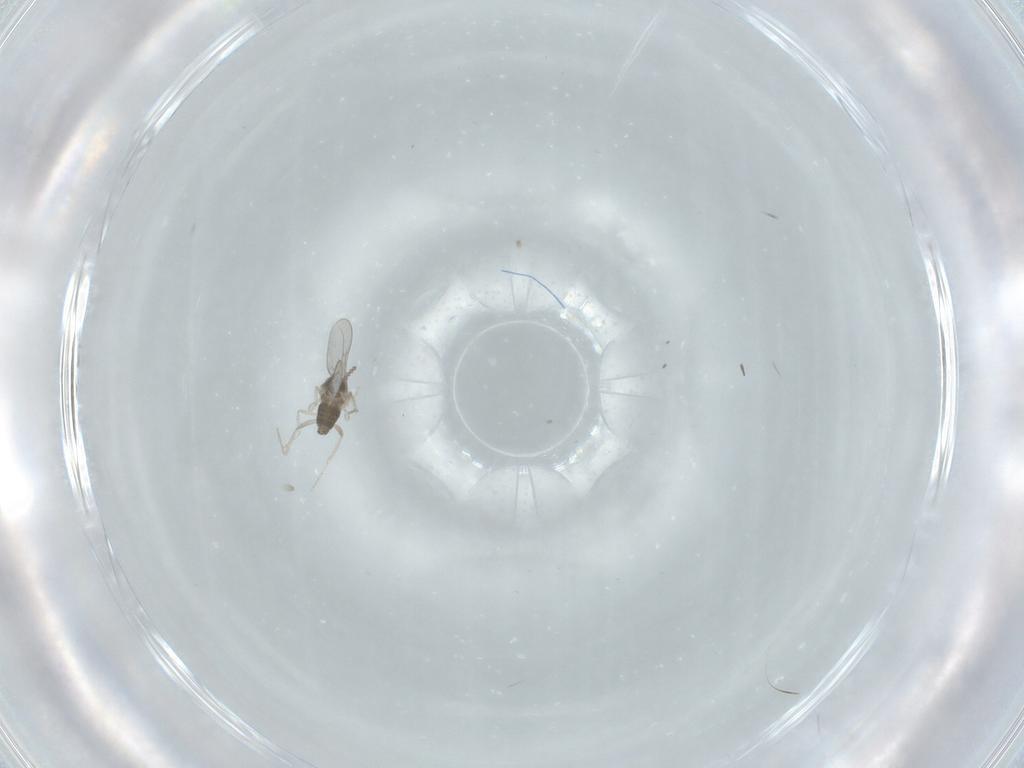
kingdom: Animalia
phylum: Arthropoda
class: Insecta
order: Diptera
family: Cecidomyiidae
